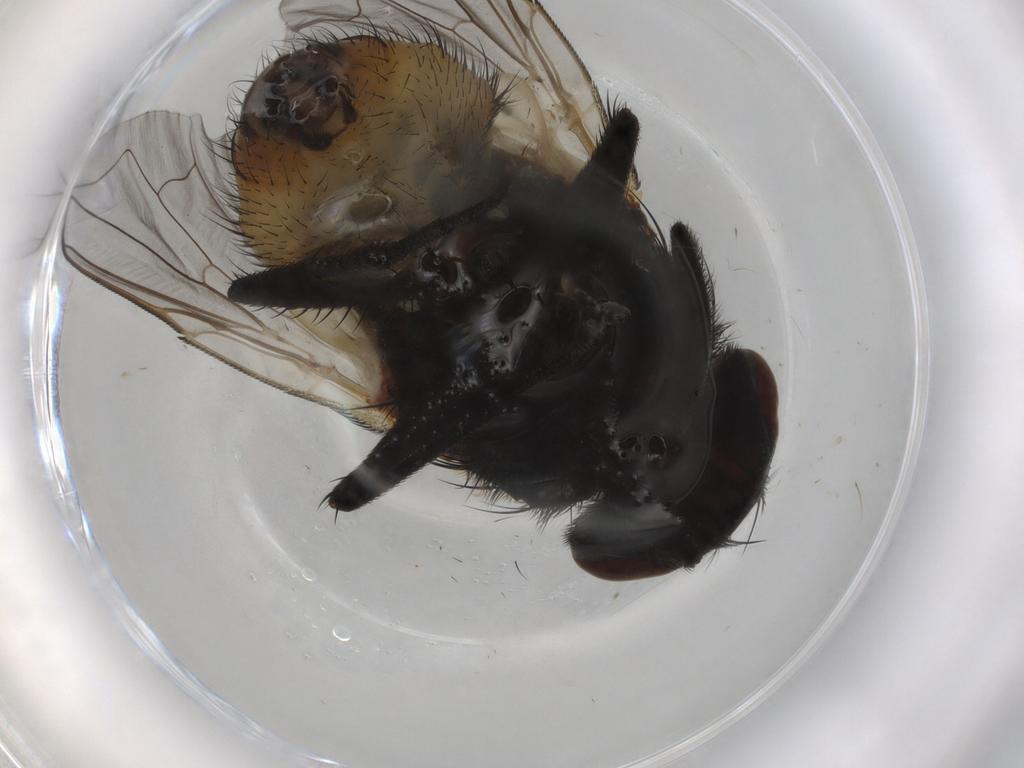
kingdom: Animalia
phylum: Arthropoda
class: Insecta
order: Diptera
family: Muscidae
